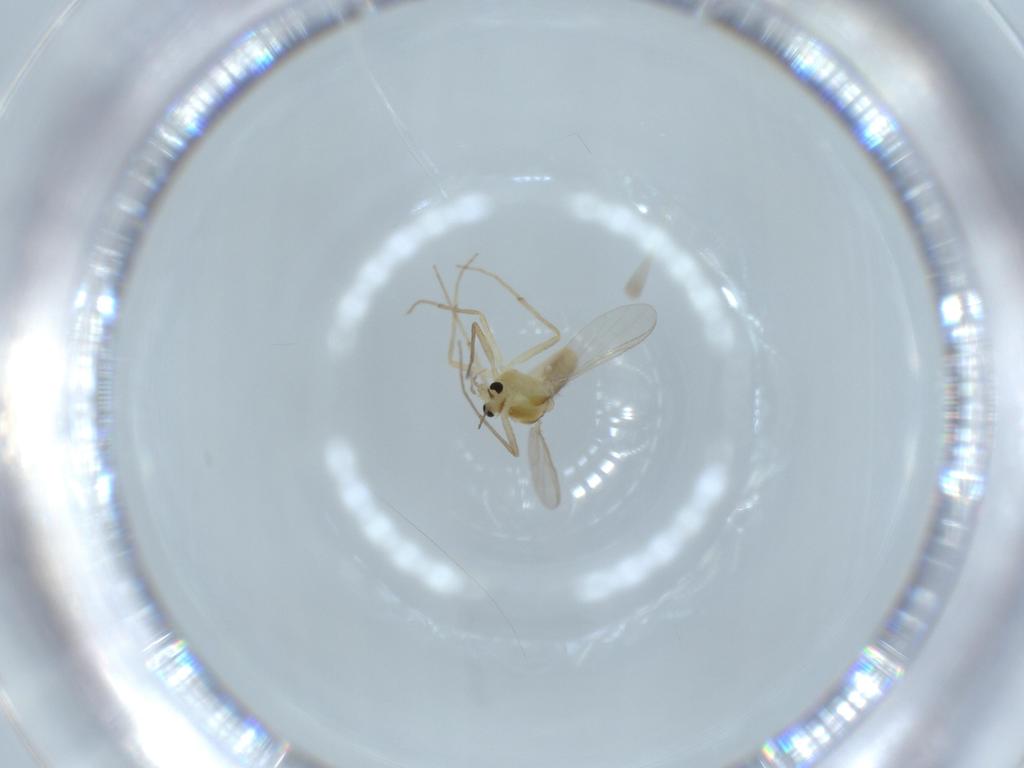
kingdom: Animalia
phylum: Arthropoda
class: Insecta
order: Diptera
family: Chironomidae
